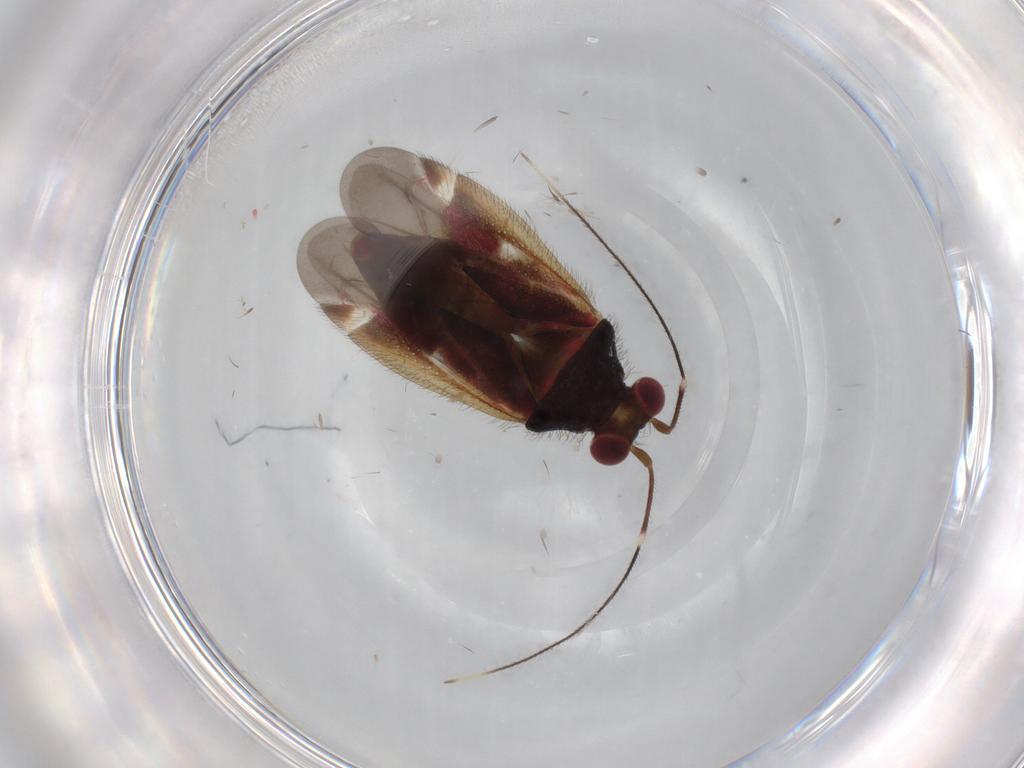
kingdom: Animalia
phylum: Arthropoda
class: Insecta
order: Hemiptera
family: Miridae
